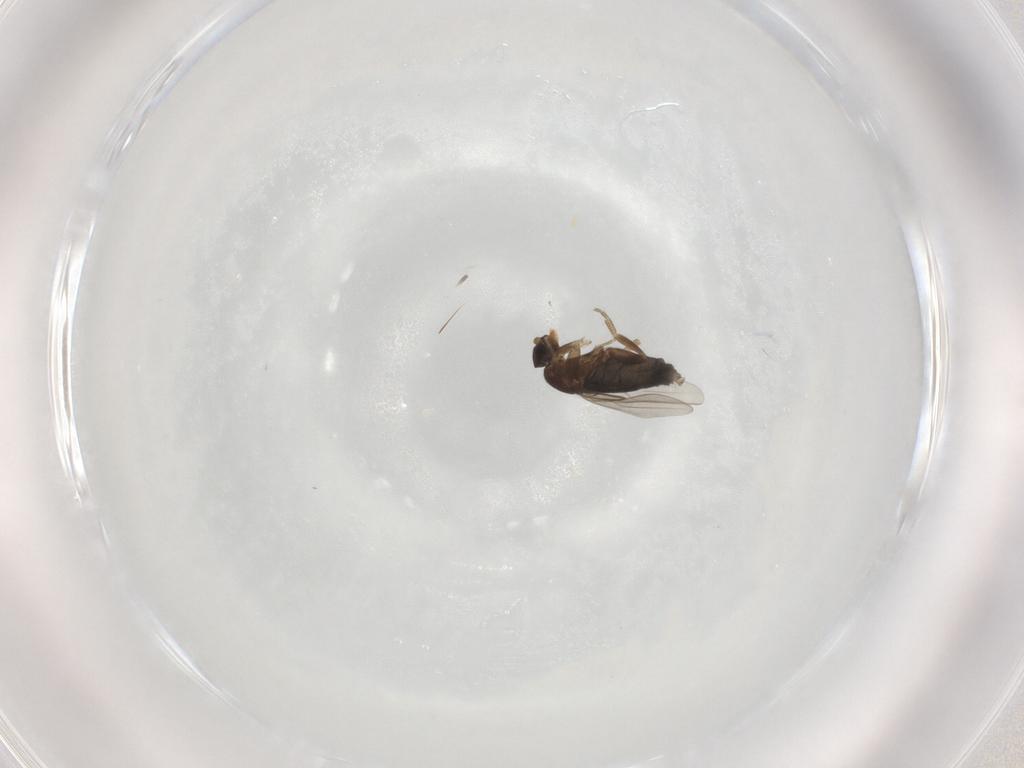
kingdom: Animalia
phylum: Arthropoda
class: Insecta
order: Diptera
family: Phoridae
